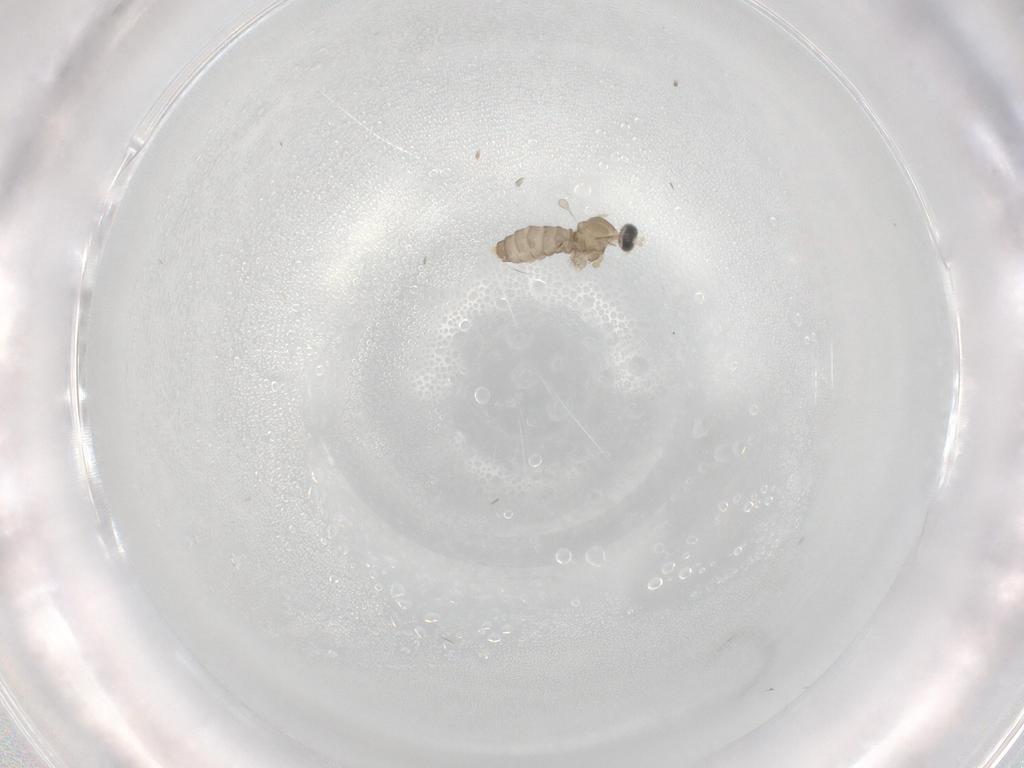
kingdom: Animalia
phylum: Arthropoda
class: Insecta
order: Diptera
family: Cecidomyiidae
